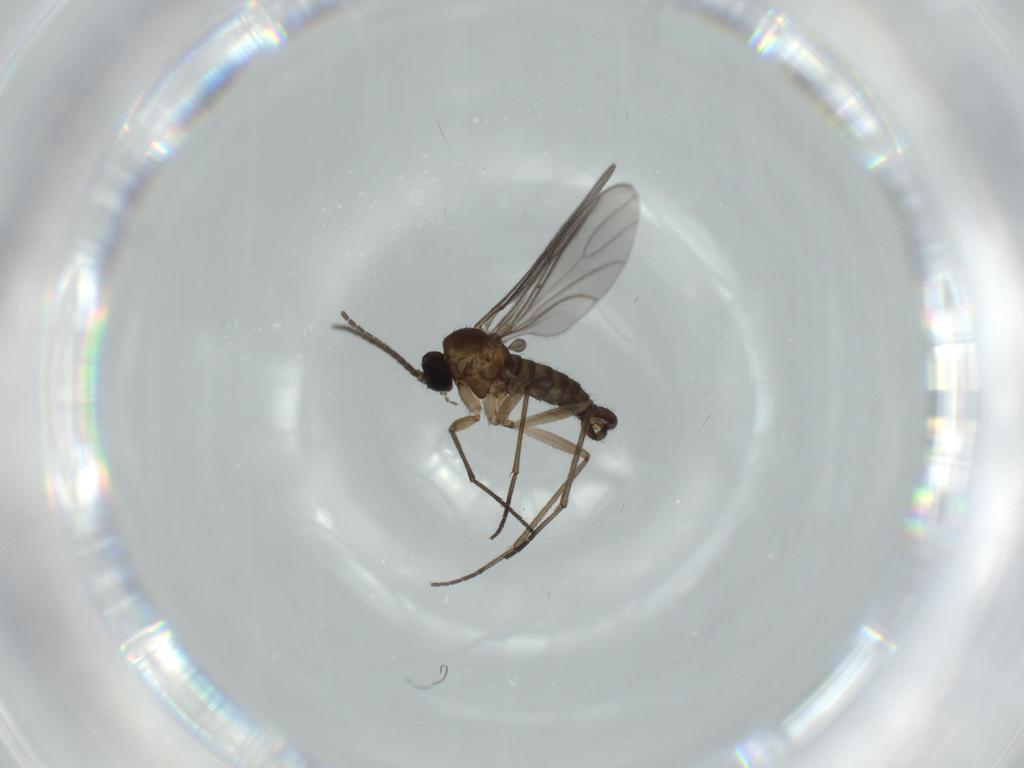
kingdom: Animalia
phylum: Arthropoda
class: Insecta
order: Diptera
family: Sciaridae
